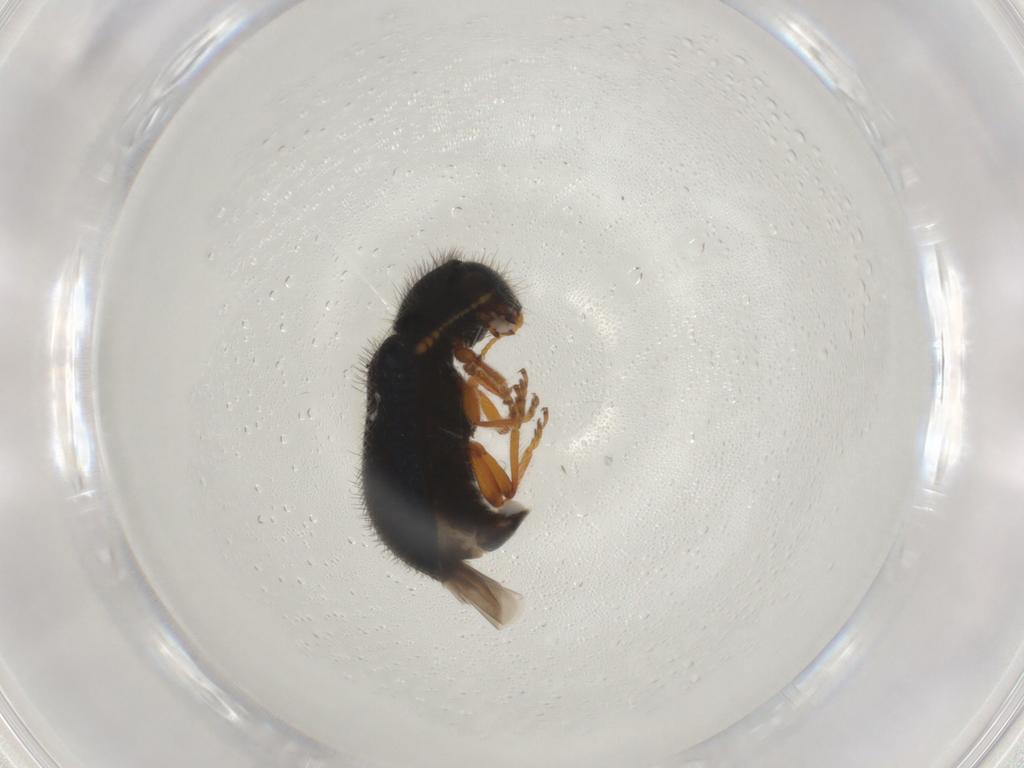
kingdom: Animalia
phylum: Arthropoda
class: Insecta
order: Coleoptera
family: Cleridae
